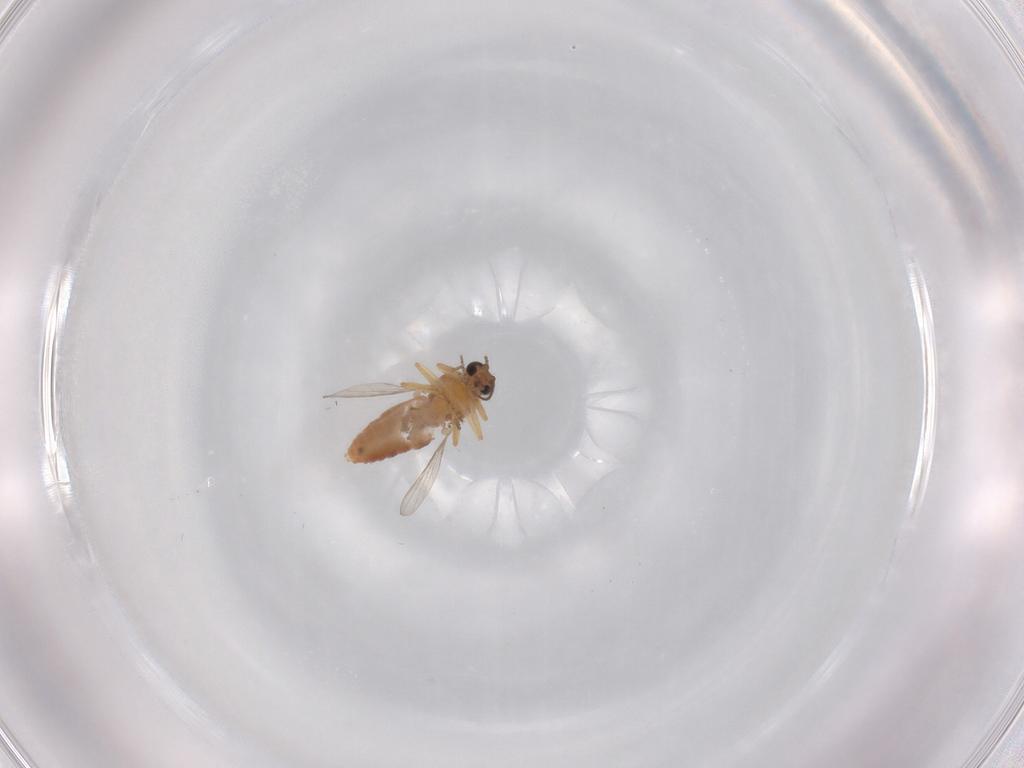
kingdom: Animalia
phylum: Arthropoda
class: Insecta
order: Diptera
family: Ceratopogonidae
